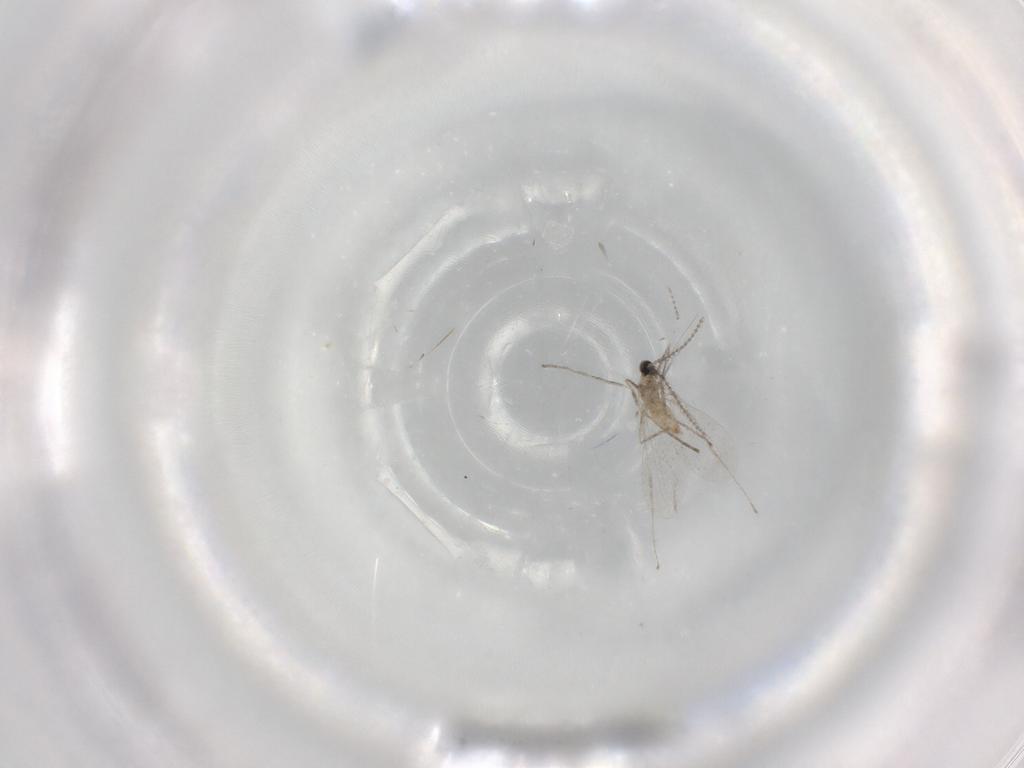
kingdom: Animalia
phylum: Arthropoda
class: Insecta
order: Diptera
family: Cecidomyiidae
